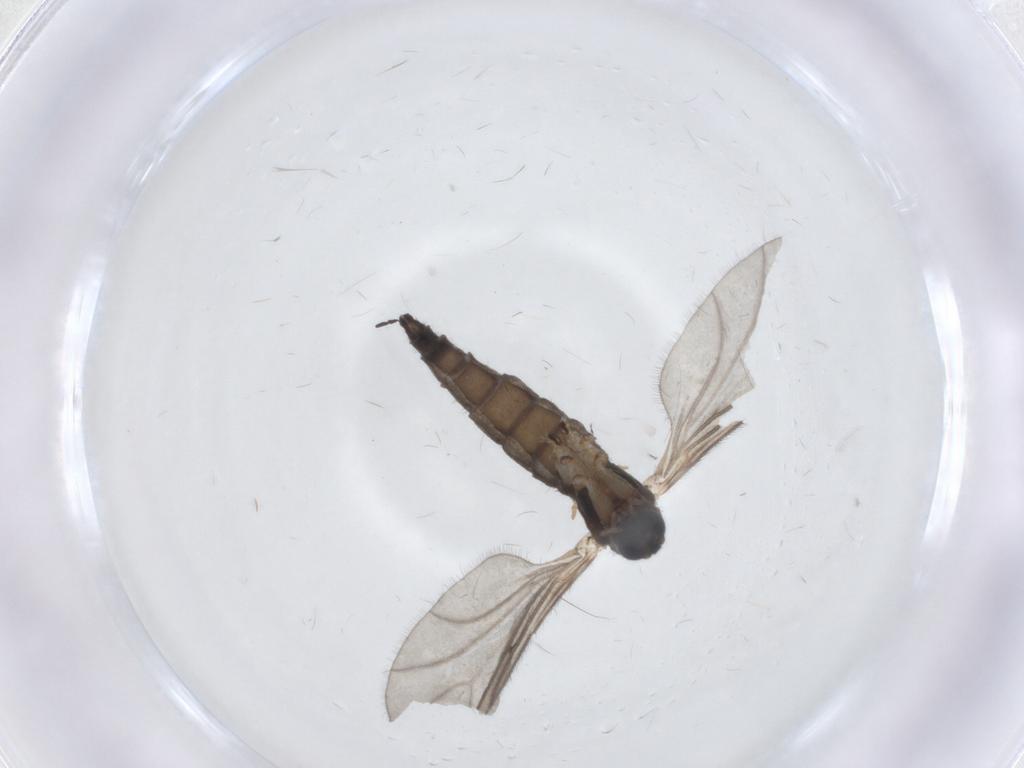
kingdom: Animalia
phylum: Arthropoda
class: Insecta
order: Diptera
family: Sciaridae
